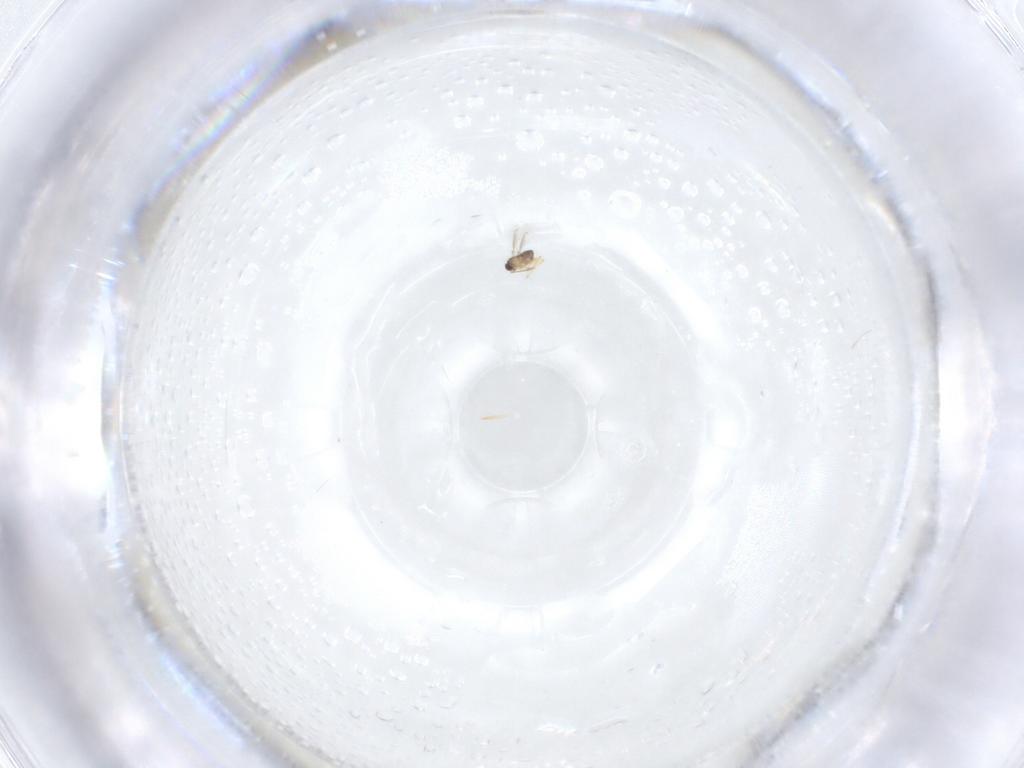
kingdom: Animalia
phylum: Arthropoda
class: Insecta
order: Hymenoptera
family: Mymaridae
